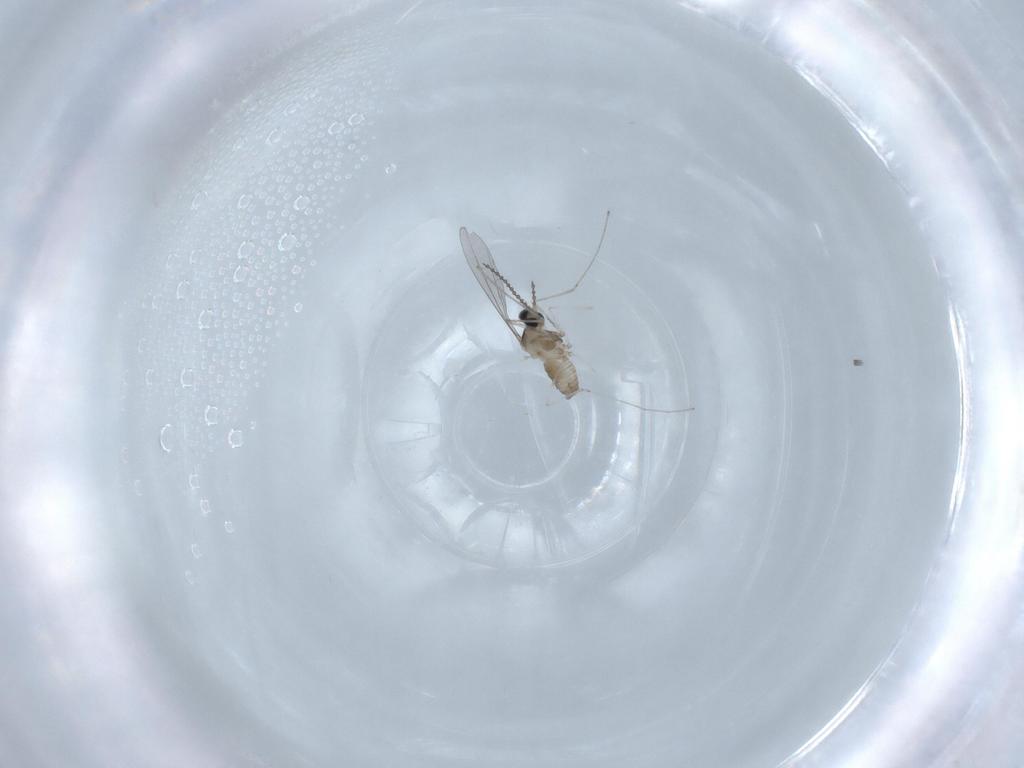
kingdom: Animalia
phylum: Arthropoda
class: Insecta
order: Diptera
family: Cecidomyiidae
